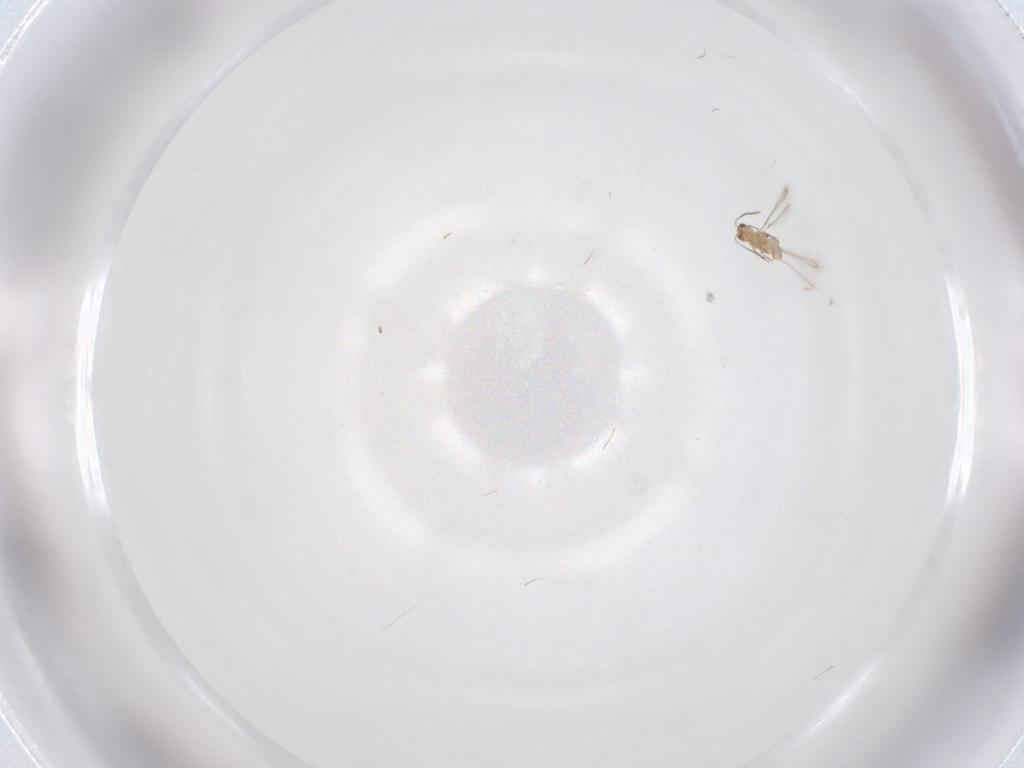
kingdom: Animalia
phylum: Arthropoda
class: Insecta
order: Hymenoptera
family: Mymaridae
